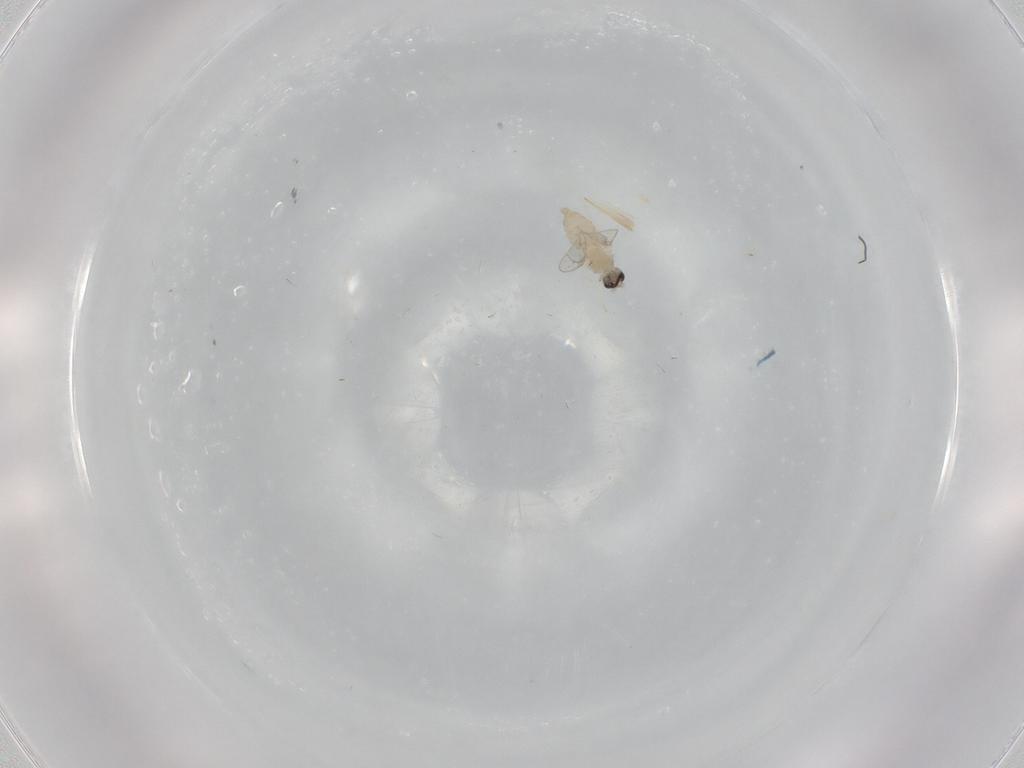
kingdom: Animalia
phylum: Arthropoda
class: Insecta
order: Diptera
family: Cecidomyiidae
